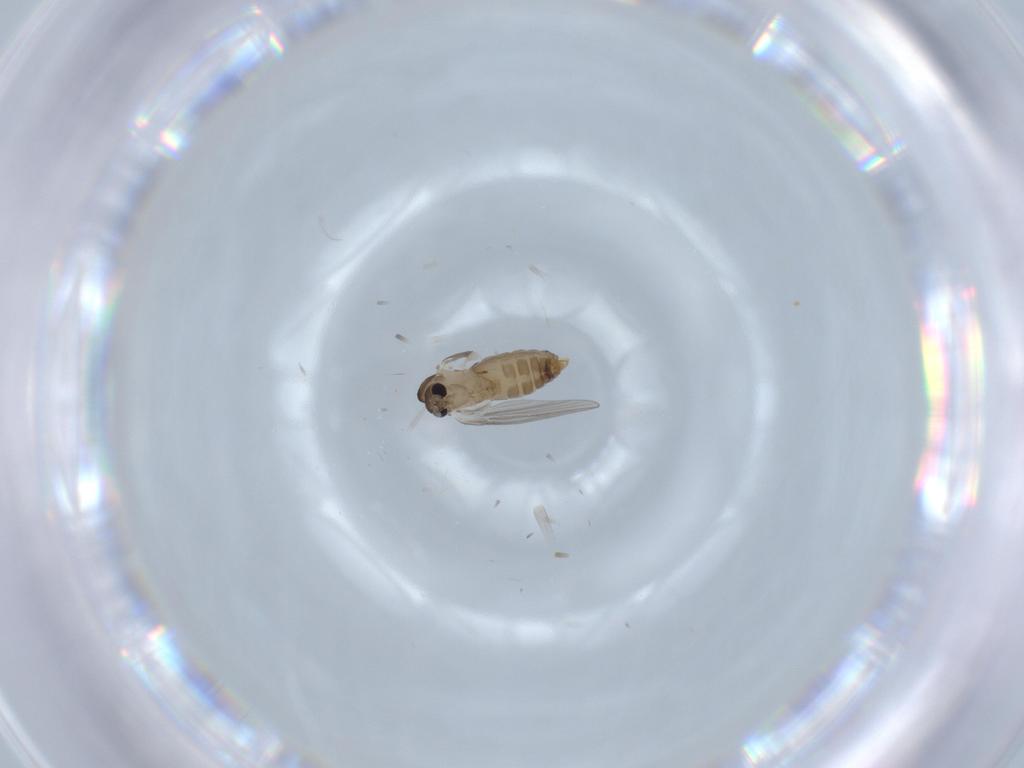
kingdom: Animalia
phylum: Arthropoda
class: Insecta
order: Diptera
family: Psychodidae
